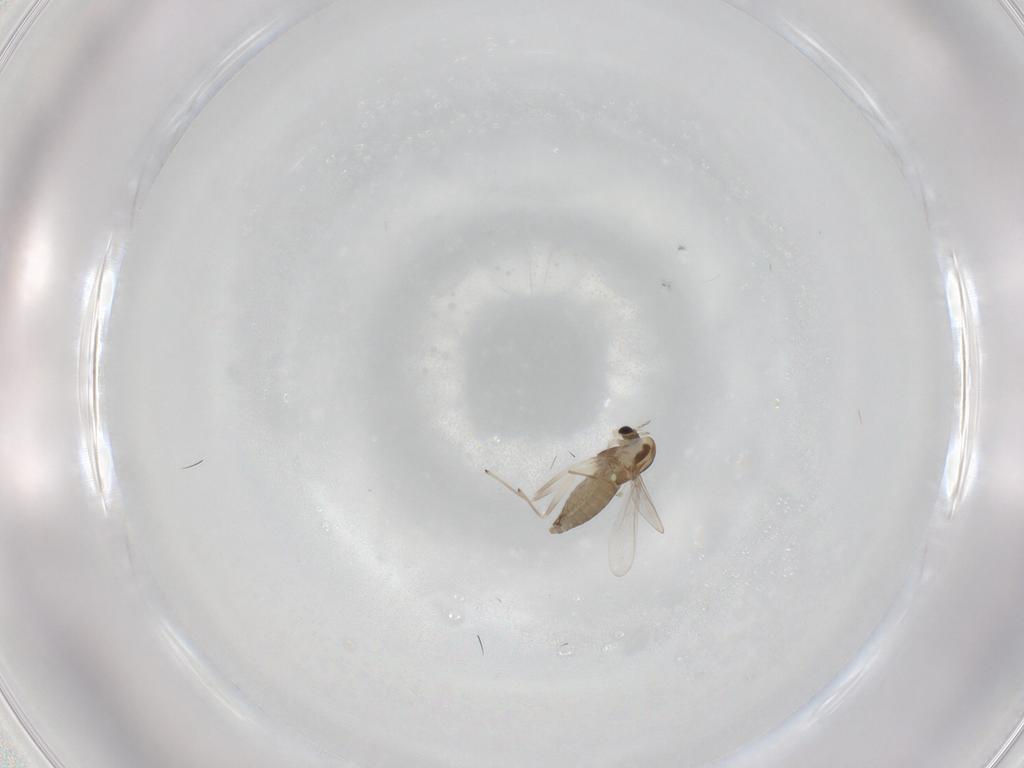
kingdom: Animalia
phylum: Arthropoda
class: Insecta
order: Diptera
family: Chironomidae
